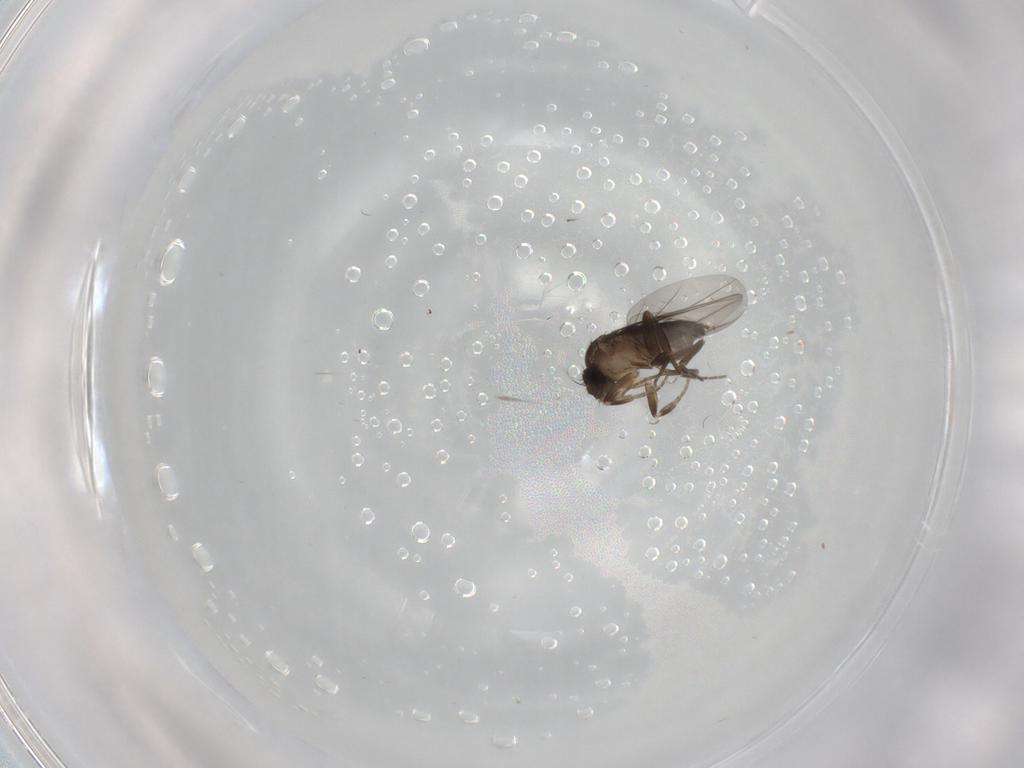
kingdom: Animalia
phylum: Arthropoda
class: Insecta
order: Diptera
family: Phoridae
